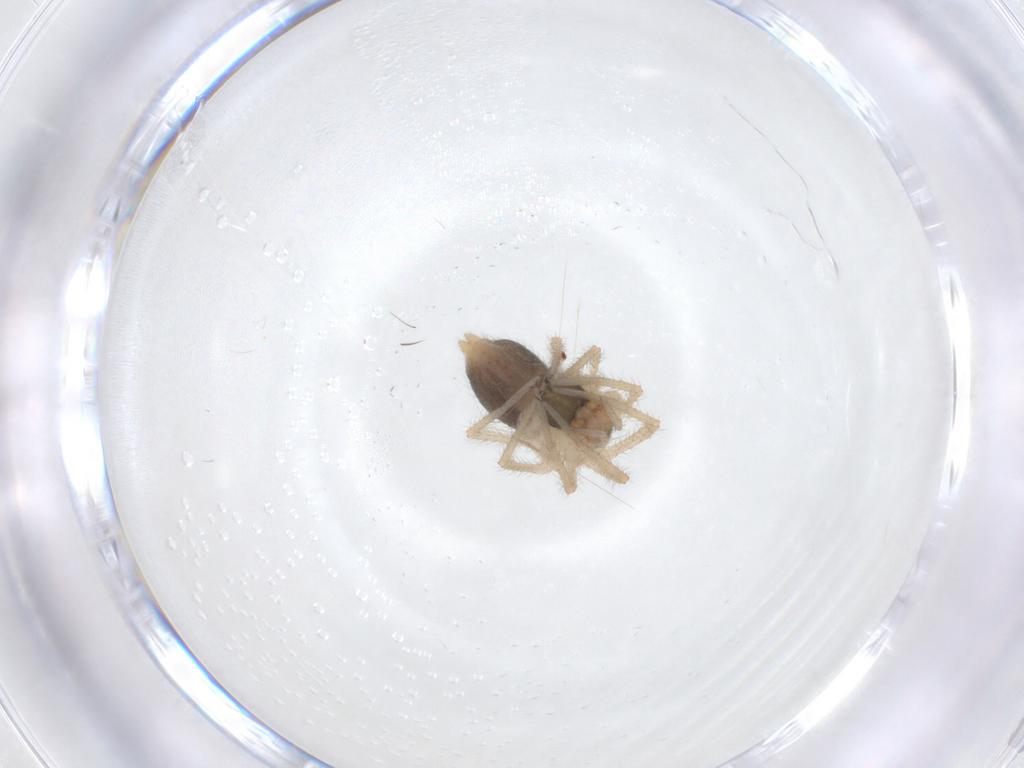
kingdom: Animalia
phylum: Arthropoda
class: Arachnida
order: Araneae
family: Linyphiidae
